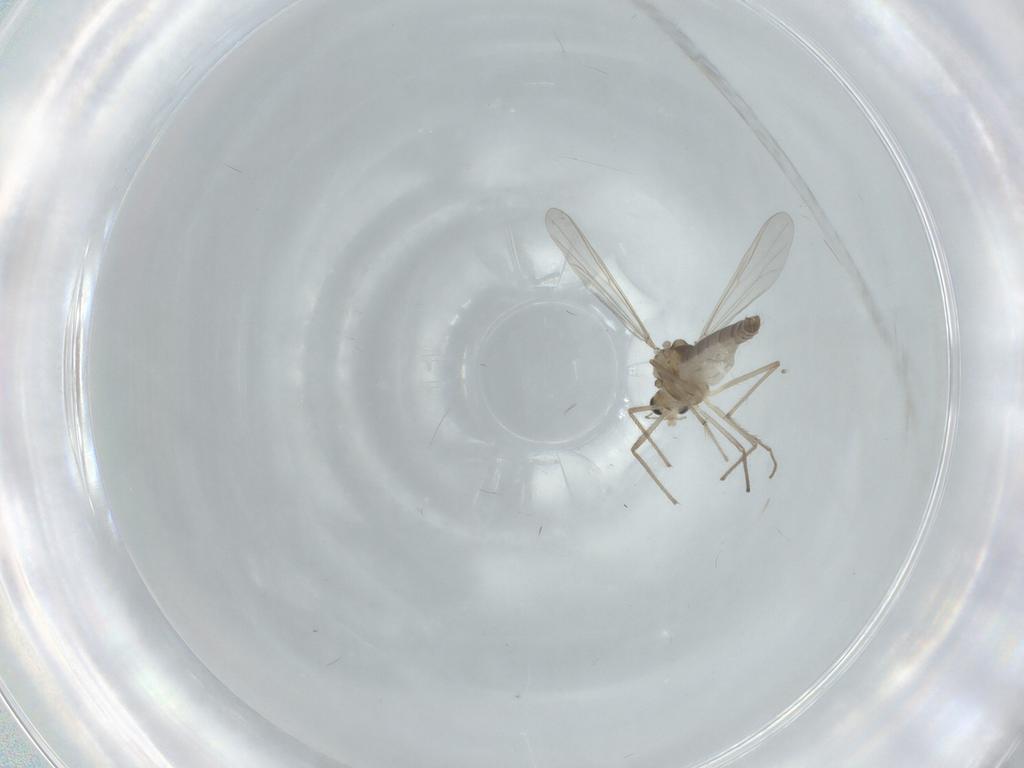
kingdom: Animalia
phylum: Arthropoda
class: Insecta
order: Diptera
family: Chironomidae
